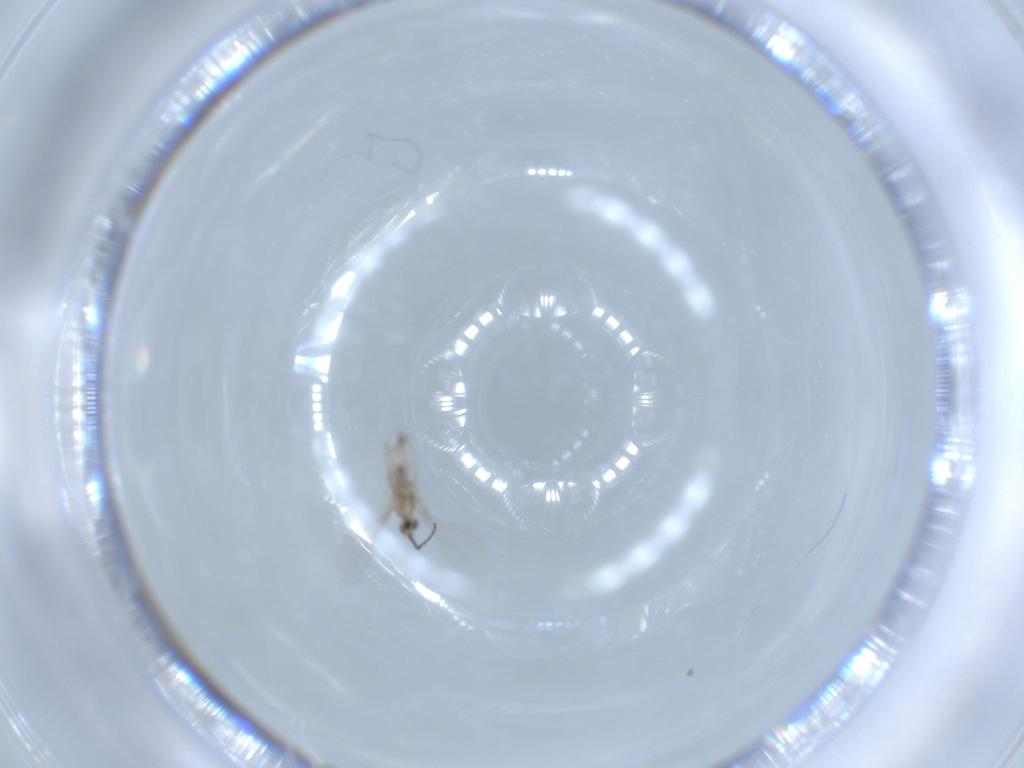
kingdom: Animalia
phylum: Arthropoda
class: Insecta
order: Diptera
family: Cecidomyiidae
